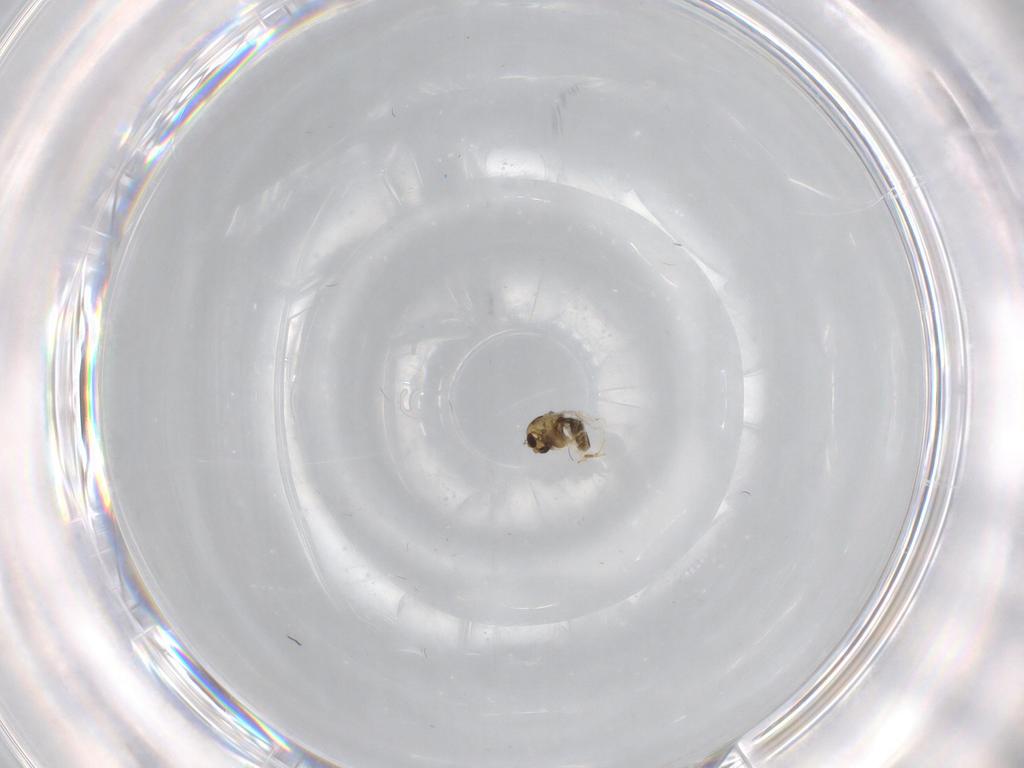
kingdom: Animalia
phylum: Arthropoda
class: Insecta
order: Diptera
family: Chironomidae
